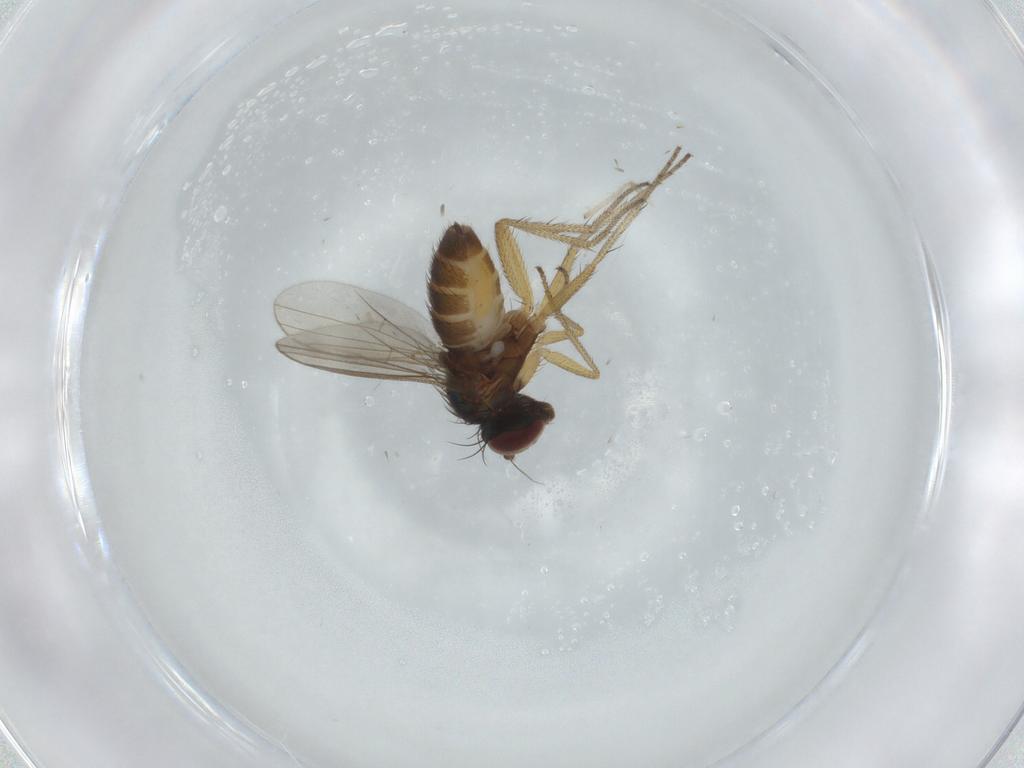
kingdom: Animalia
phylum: Arthropoda
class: Insecta
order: Diptera
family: Dolichopodidae
